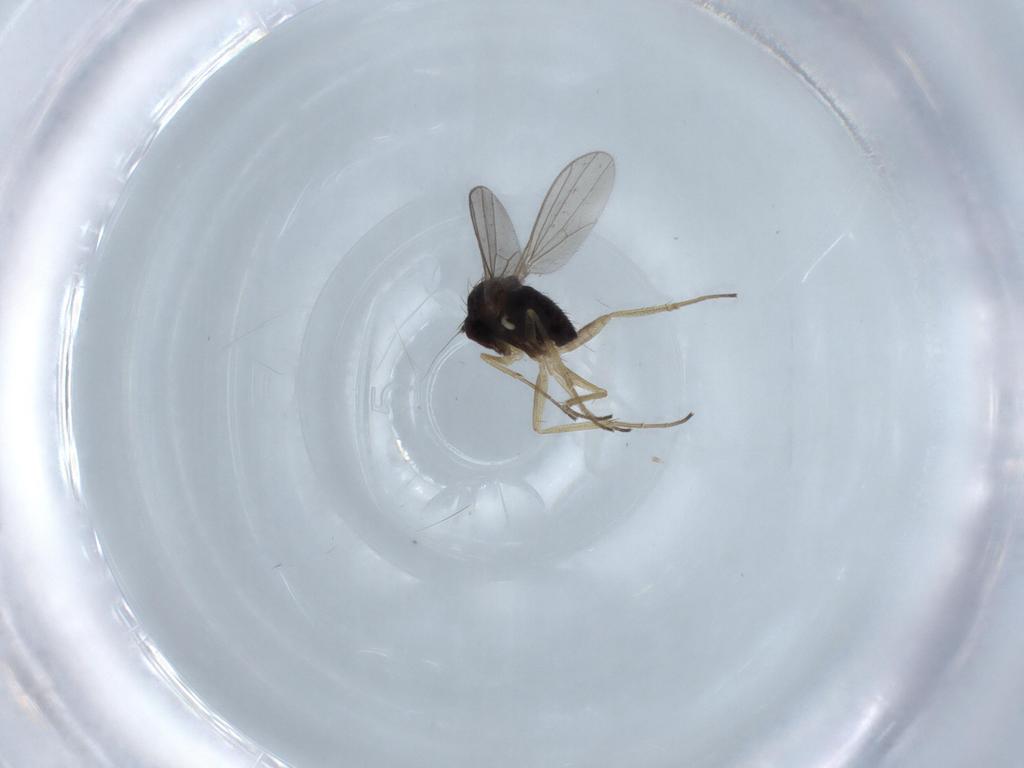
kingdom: Animalia
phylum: Arthropoda
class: Insecta
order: Diptera
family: Dolichopodidae
